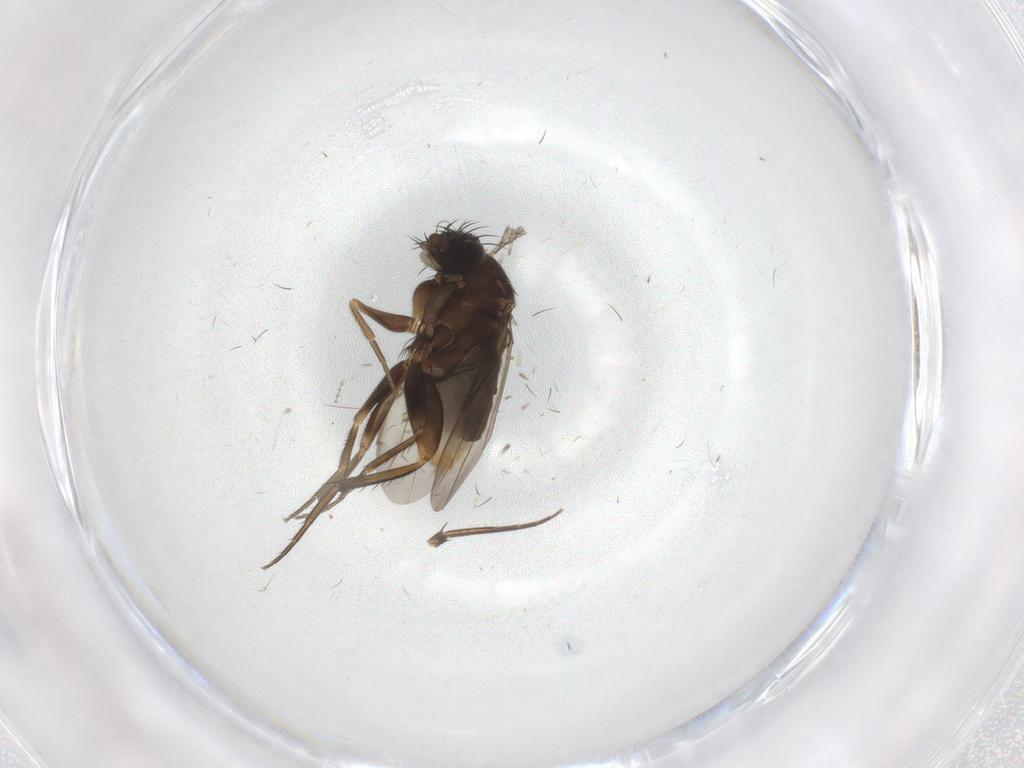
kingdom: Animalia
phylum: Arthropoda
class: Insecta
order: Diptera
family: Phoridae
